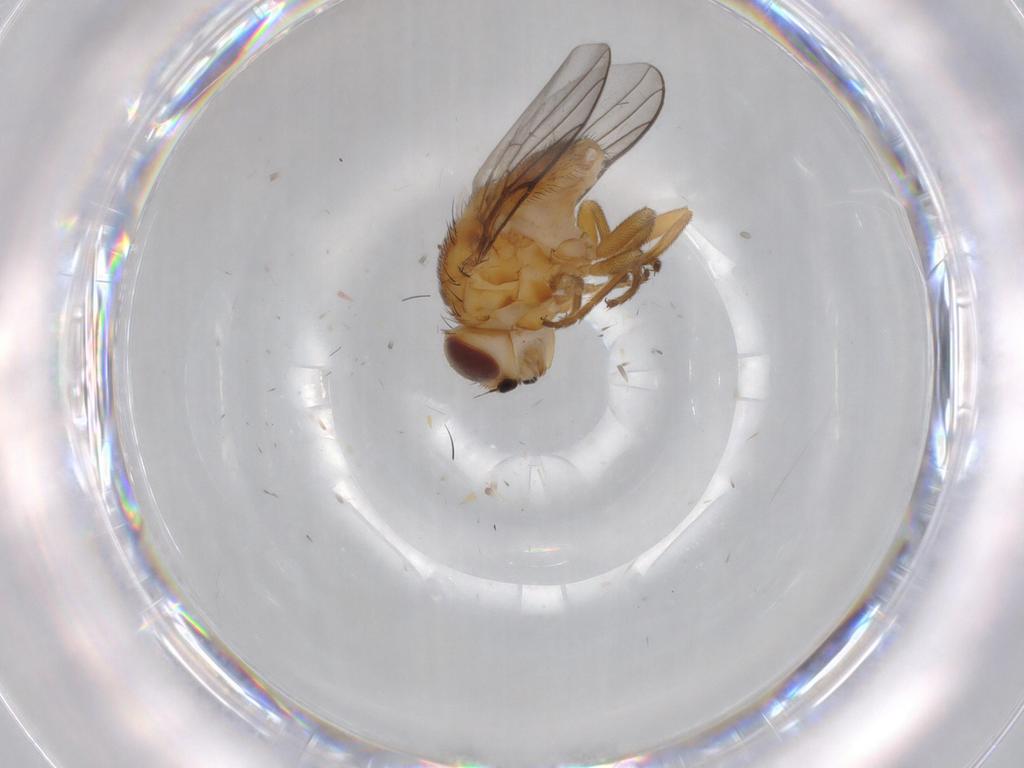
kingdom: Animalia
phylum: Arthropoda
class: Insecta
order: Diptera
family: Chloropidae
